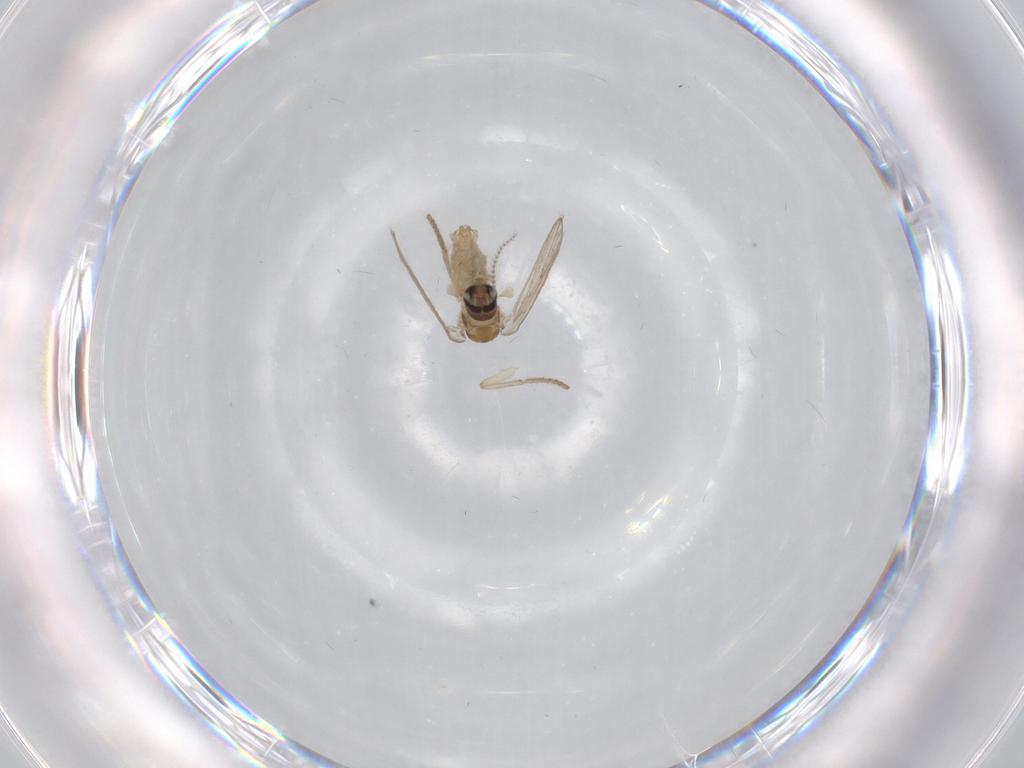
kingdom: Animalia
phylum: Arthropoda
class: Insecta
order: Diptera
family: Psychodidae
